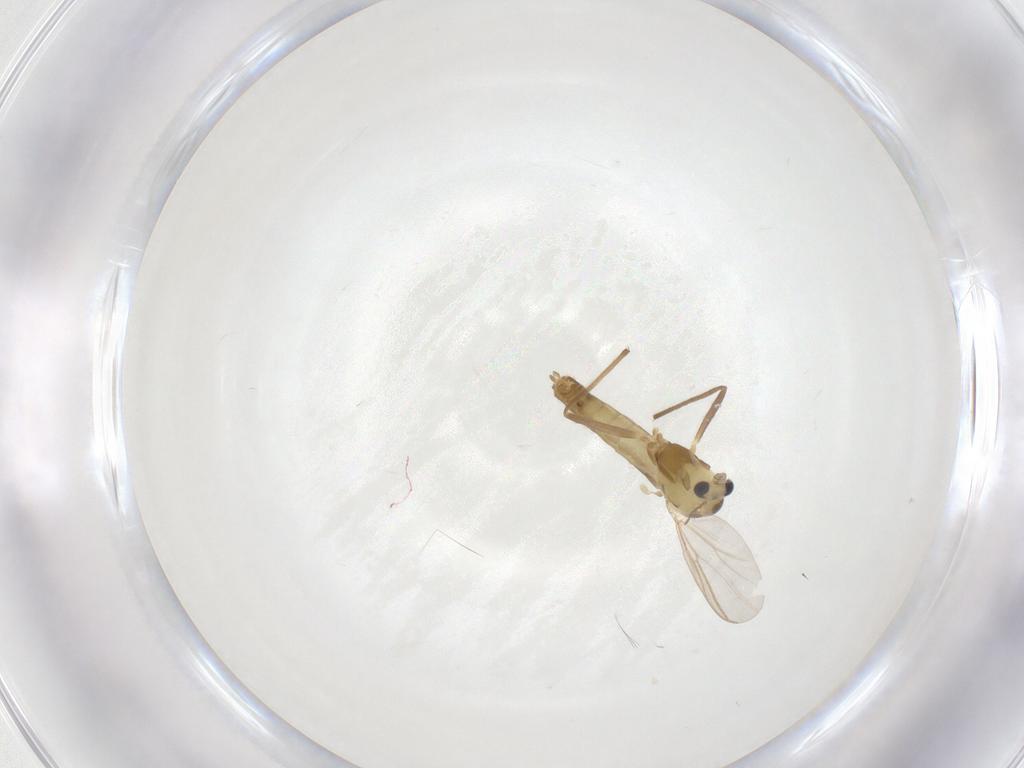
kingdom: Animalia
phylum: Arthropoda
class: Insecta
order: Diptera
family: Chironomidae
